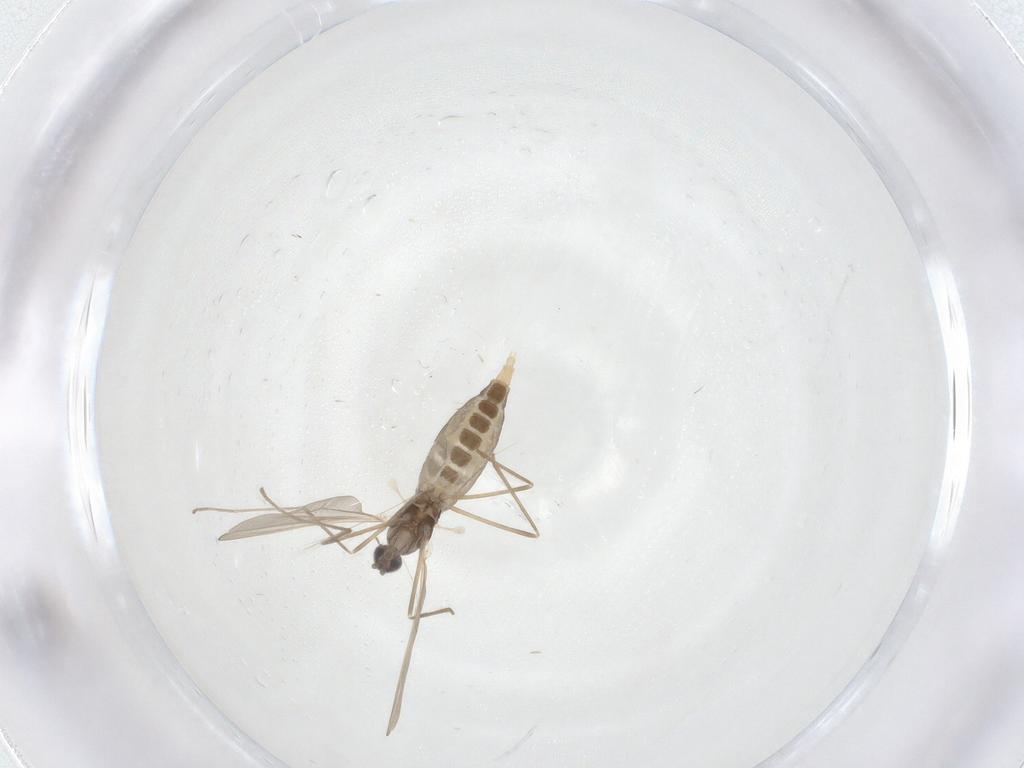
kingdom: Animalia
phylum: Arthropoda
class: Insecta
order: Diptera
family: Cecidomyiidae
